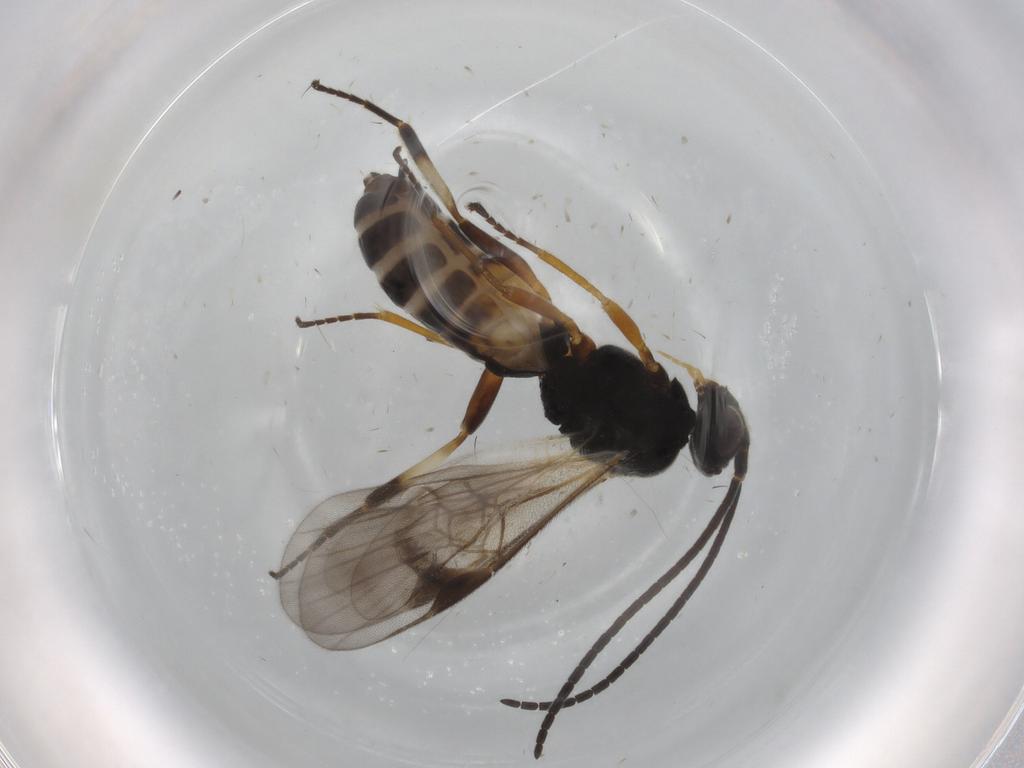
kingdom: Animalia
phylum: Arthropoda
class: Insecta
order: Hymenoptera
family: Braconidae
